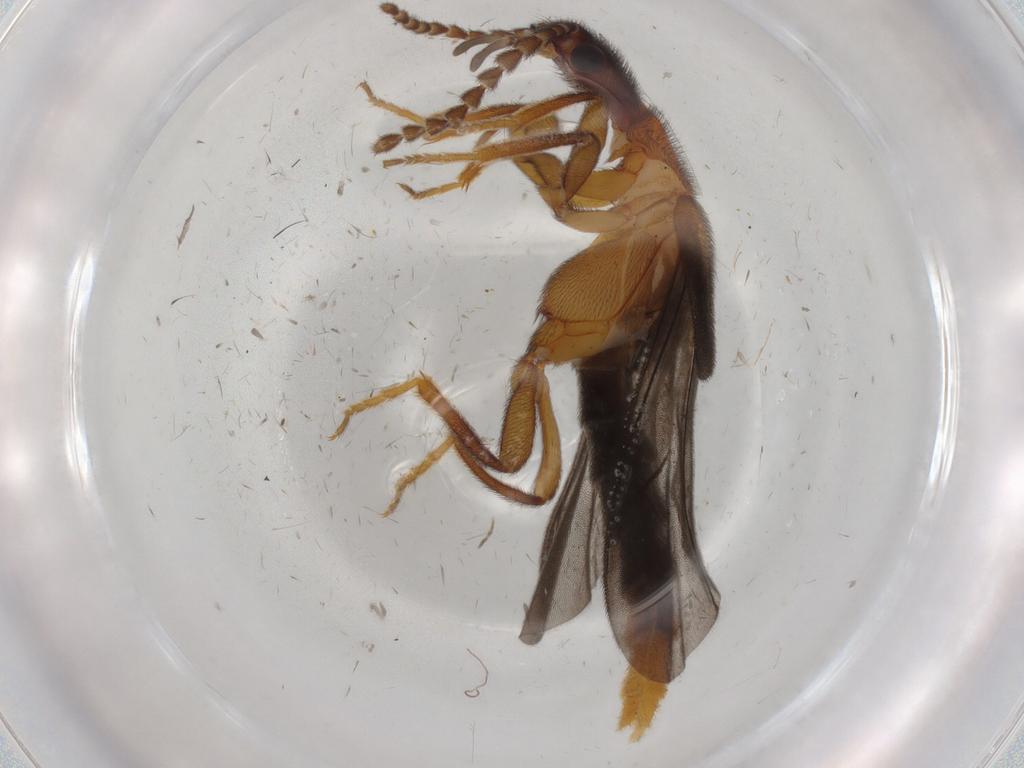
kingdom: Animalia
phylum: Arthropoda
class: Insecta
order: Coleoptera
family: Omethidae
